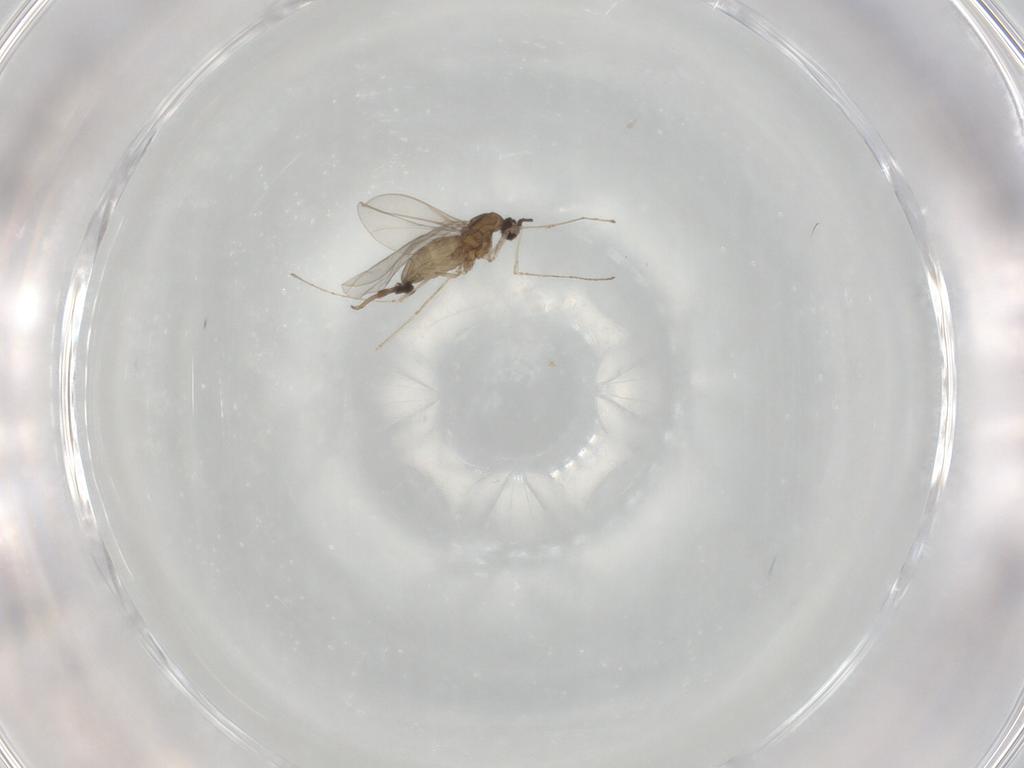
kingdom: Animalia
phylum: Arthropoda
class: Insecta
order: Diptera
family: Cecidomyiidae
